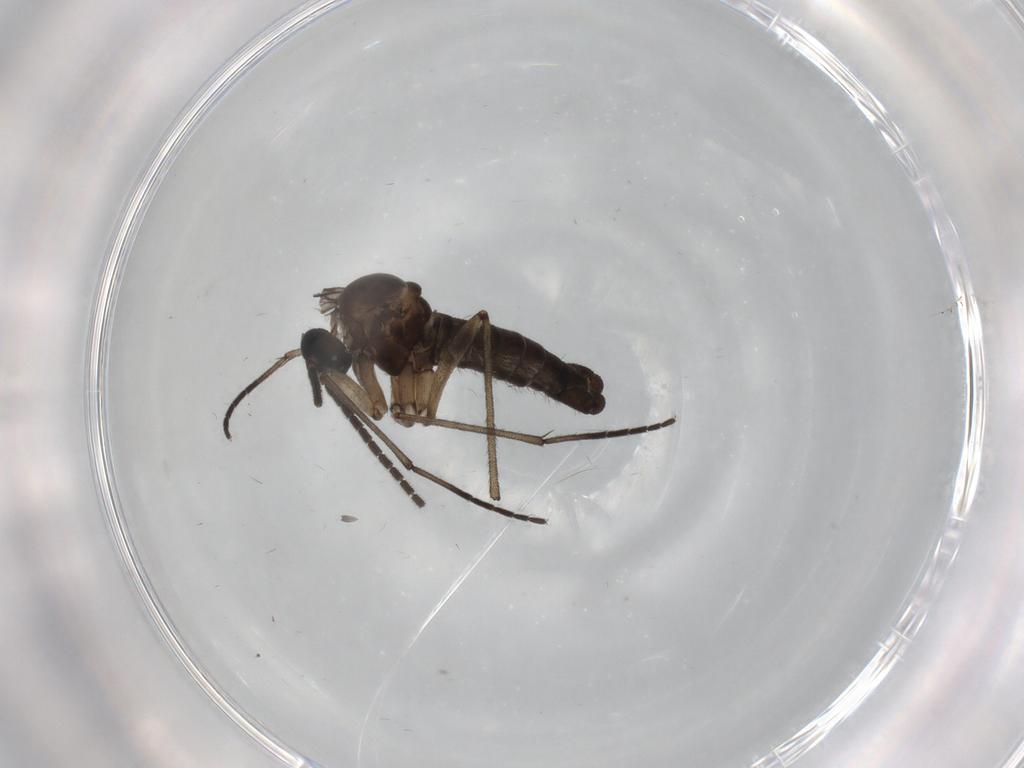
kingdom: Animalia
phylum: Arthropoda
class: Insecta
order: Diptera
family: Sciaridae
